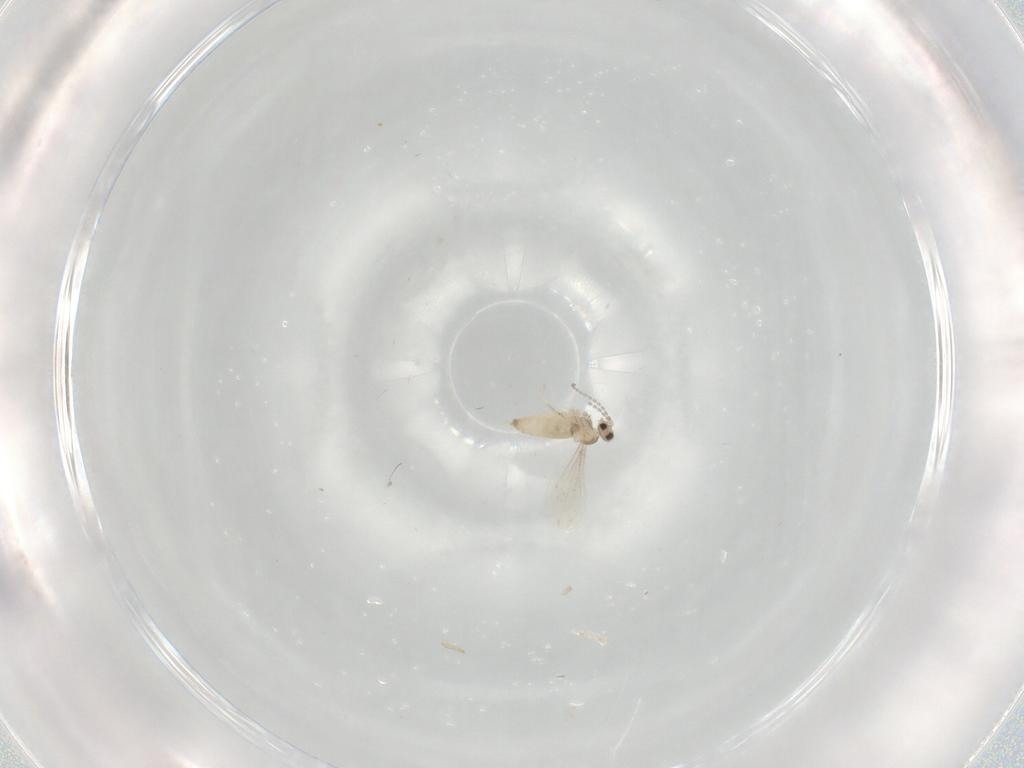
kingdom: Animalia
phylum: Arthropoda
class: Insecta
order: Diptera
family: Cecidomyiidae
